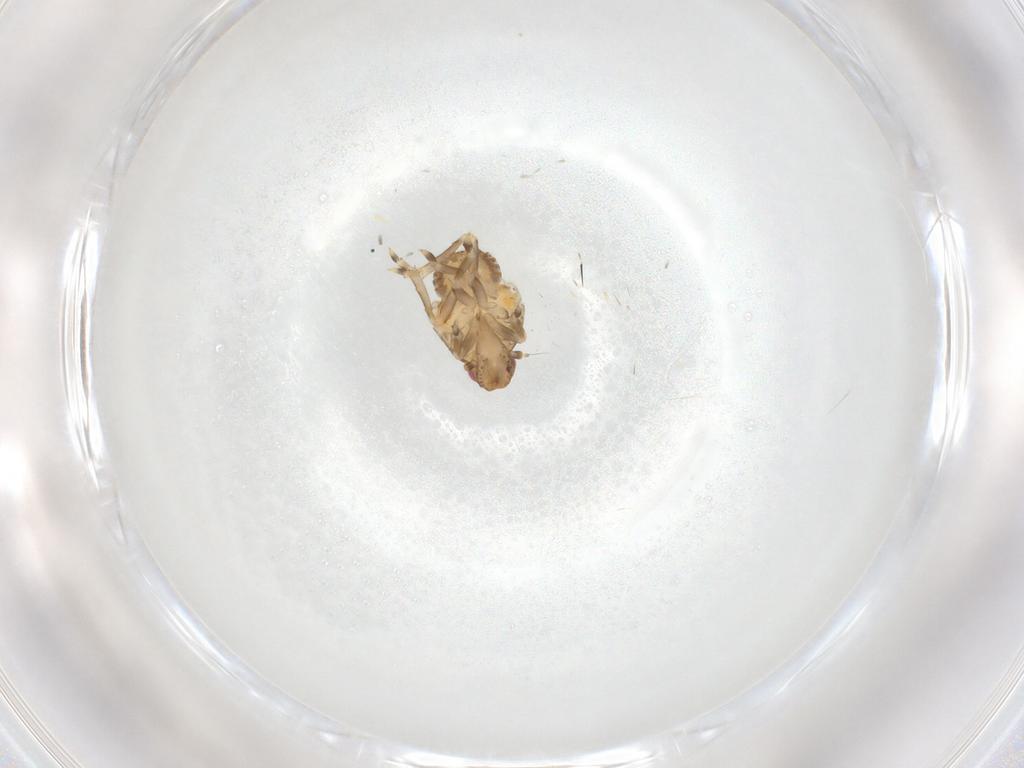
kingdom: Animalia
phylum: Arthropoda
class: Insecta
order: Hemiptera
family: Flatidae
